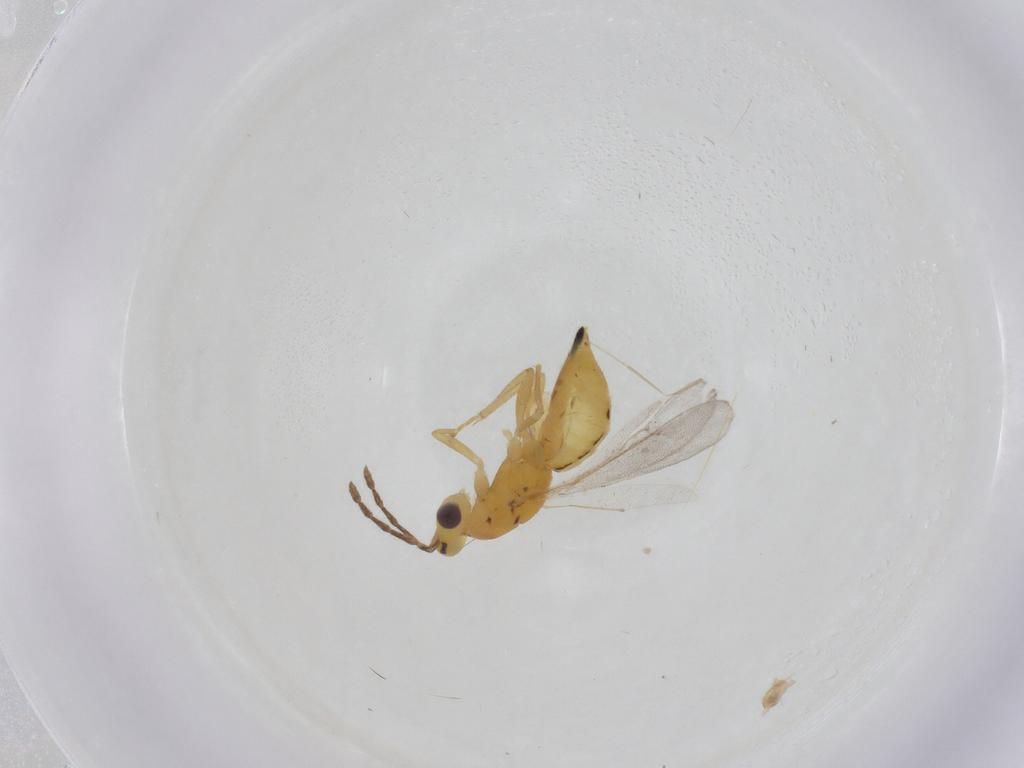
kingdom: Animalia
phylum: Arthropoda
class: Insecta
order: Hymenoptera
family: Eulophidae
